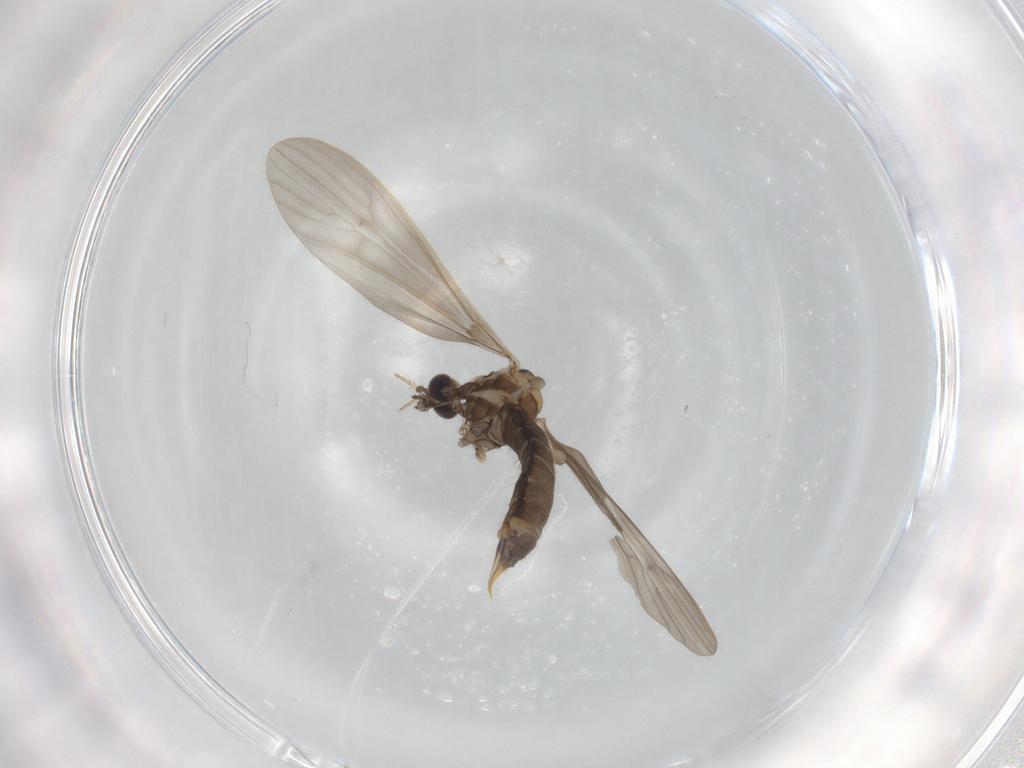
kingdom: Animalia
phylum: Arthropoda
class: Insecta
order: Diptera
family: Limoniidae
